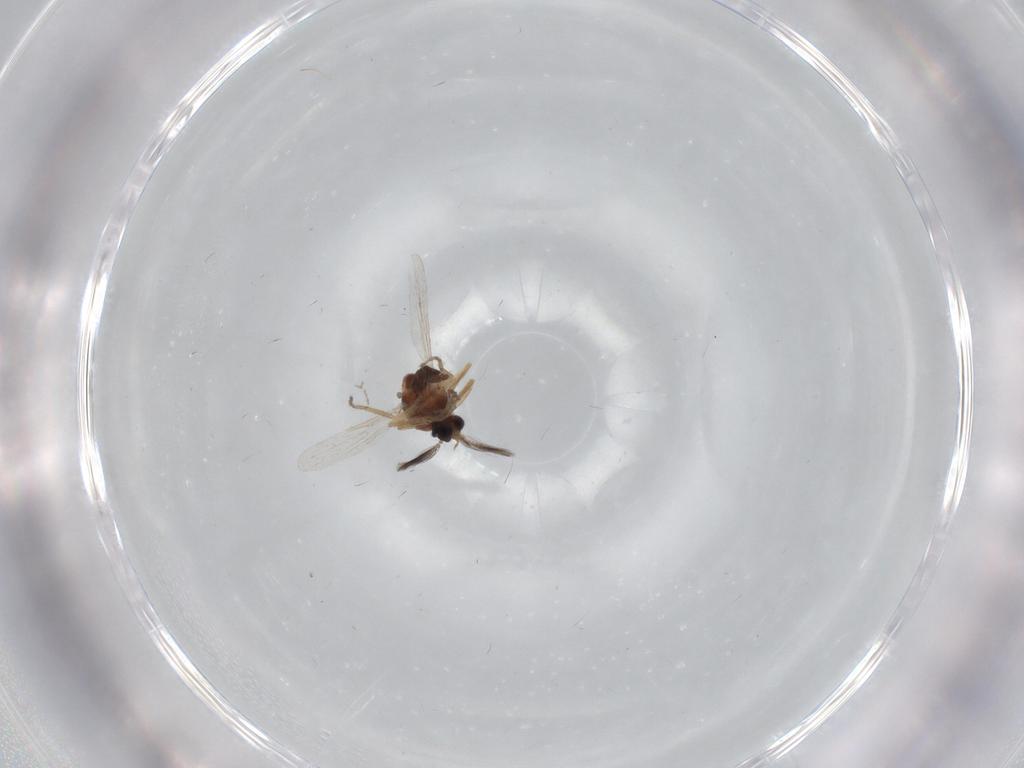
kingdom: Animalia
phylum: Arthropoda
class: Insecta
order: Diptera
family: Ceratopogonidae
